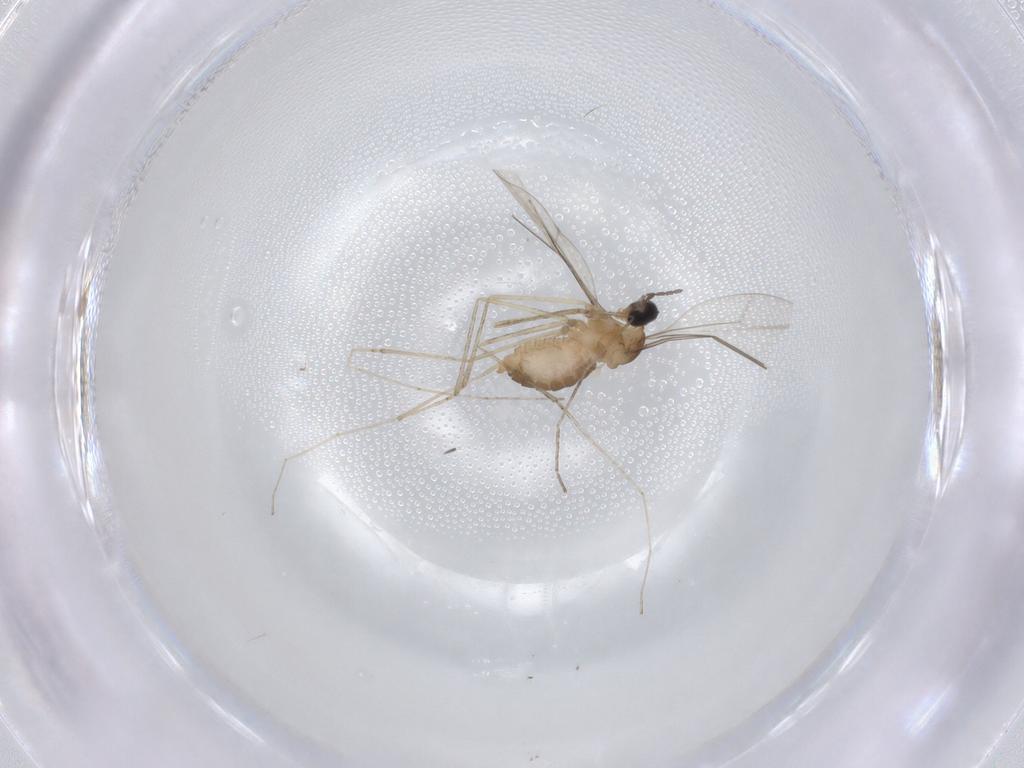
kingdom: Animalia
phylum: Arthropoda
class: Insecta
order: Diptera
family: Cecidomyiidae
